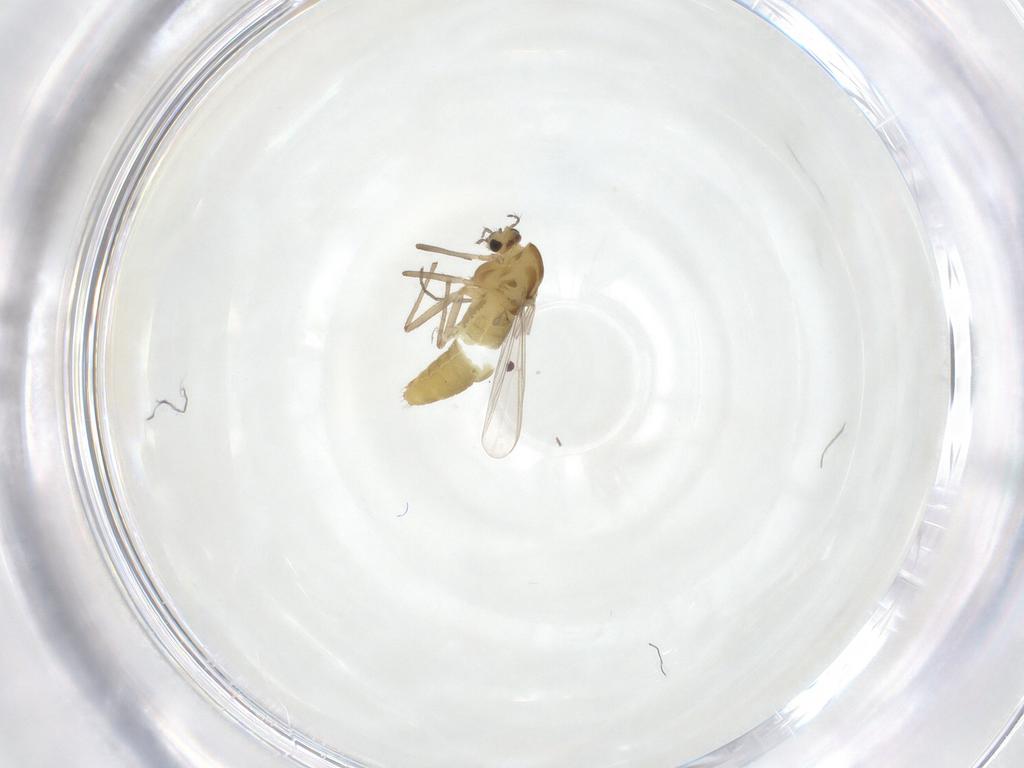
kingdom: Animalia
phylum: Arthropoda
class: Insecta
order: Diptera
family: Chironomidae
